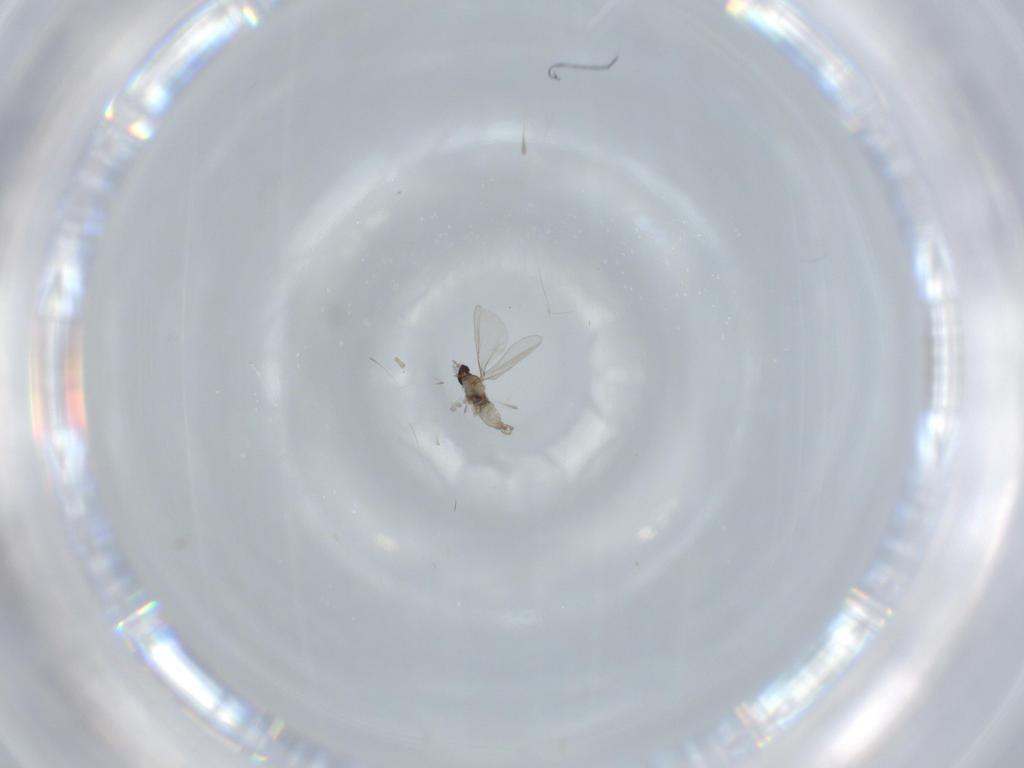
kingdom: Animalia
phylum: Arthropoda
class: Insecta
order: Diptera
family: Cecidomyiidae
